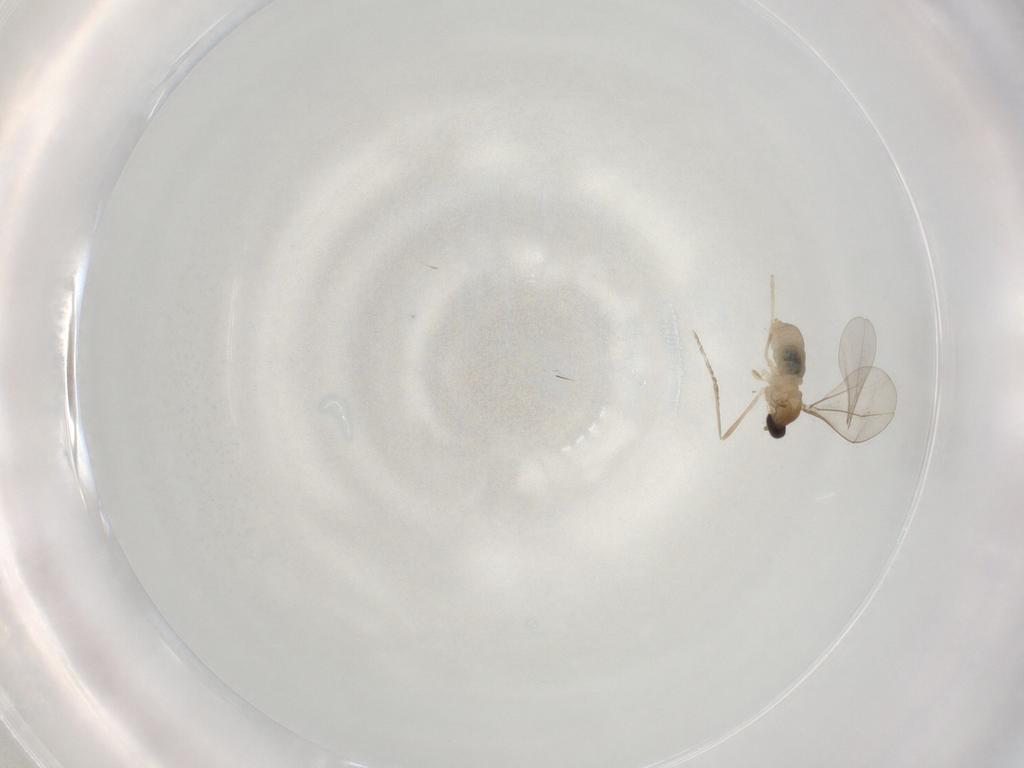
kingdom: Animalia
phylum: Arthropoda
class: Insecta
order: Diptera
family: Cecidomyiidae
